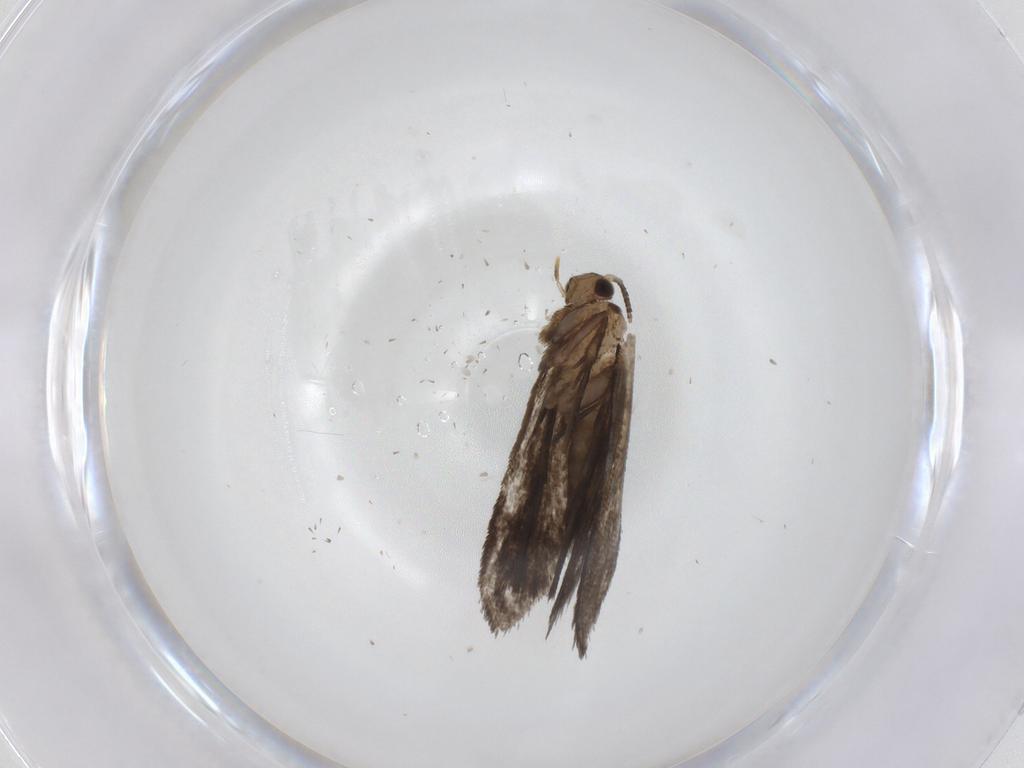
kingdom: Animalia
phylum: Arthropoda
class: Insecta
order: Lepidoptera
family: Crambidae
